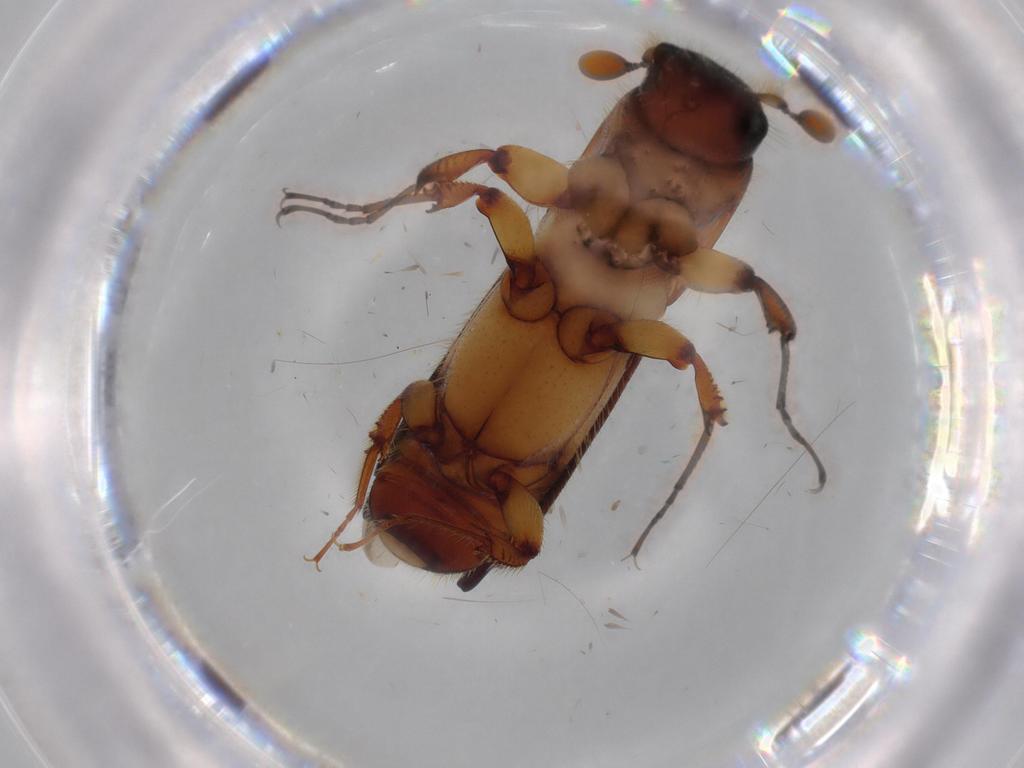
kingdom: Animalia
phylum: Arthropoda
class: Insecta
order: Coleoptera
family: Curculionidae
